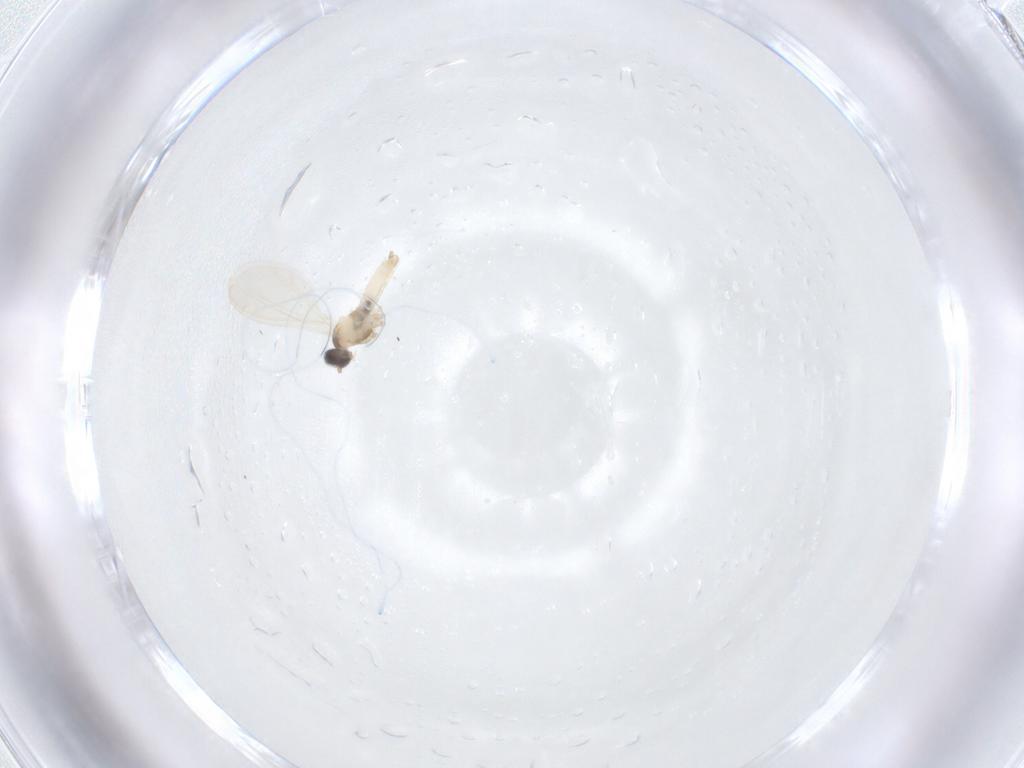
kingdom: Animalia
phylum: Arthropoda
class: Insecta
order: Diptera
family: Cecidomyiidae
